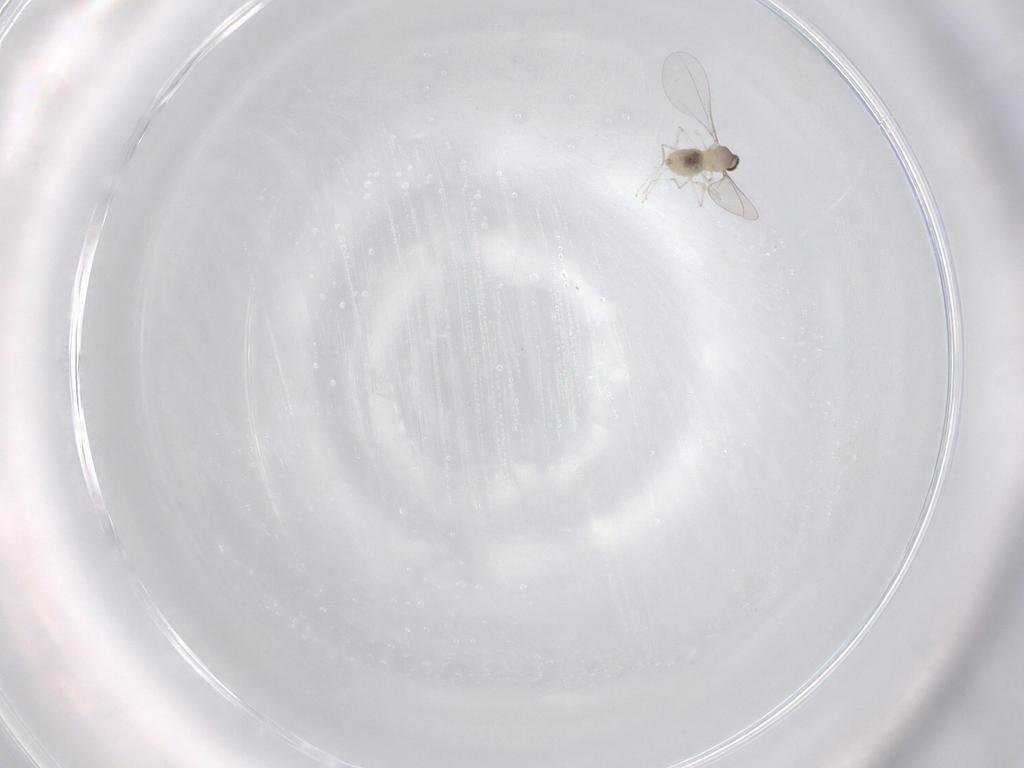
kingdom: Animalia
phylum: Arthropoda
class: Insecta
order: Diptera
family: Cecidomyiidae
